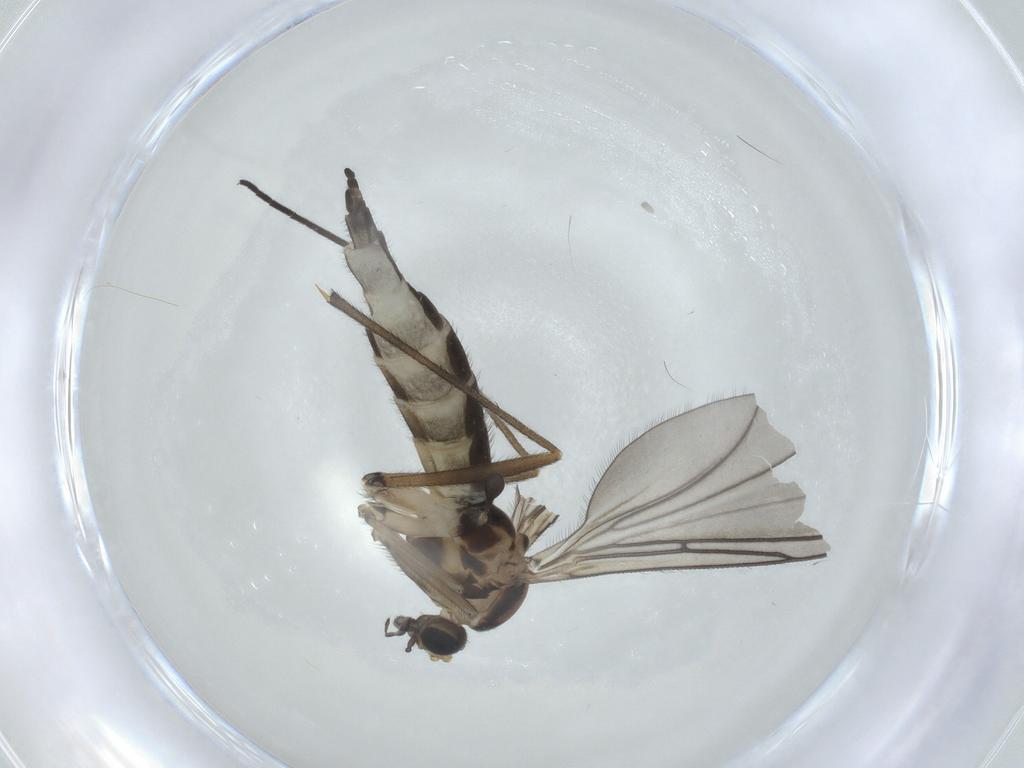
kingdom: Animalia
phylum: Arthropoda
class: Insecta
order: Diptera
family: Sciaridae
